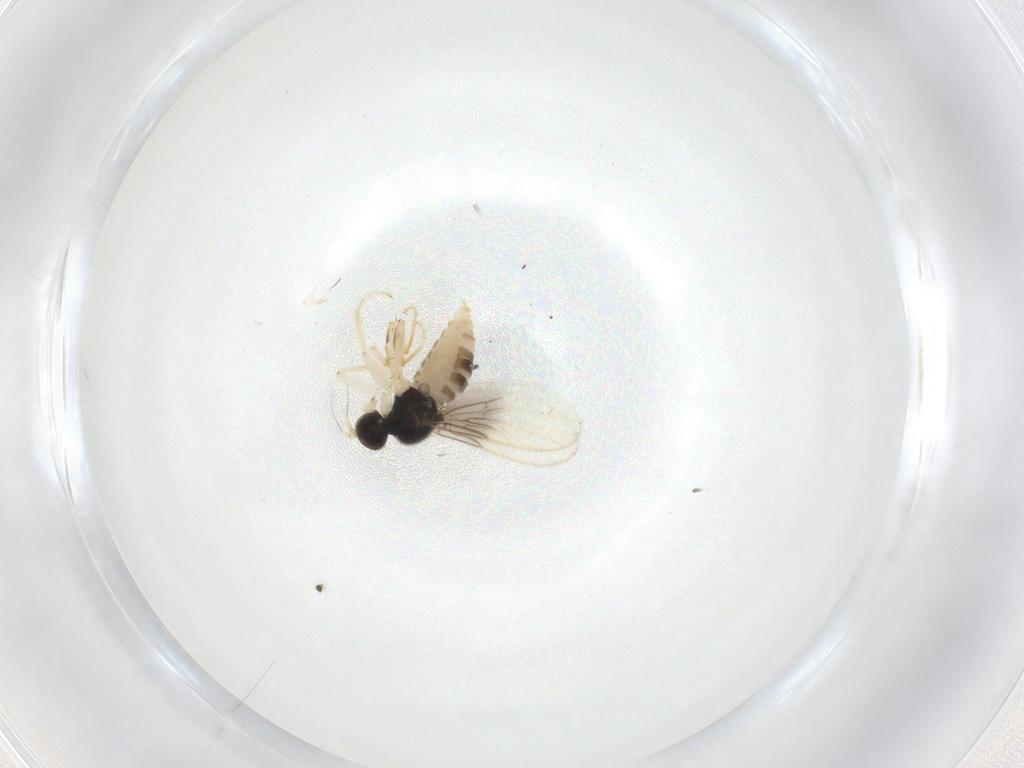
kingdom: Animalia
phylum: Arthropoda
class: Insecta
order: Diptera
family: Hybotidae
